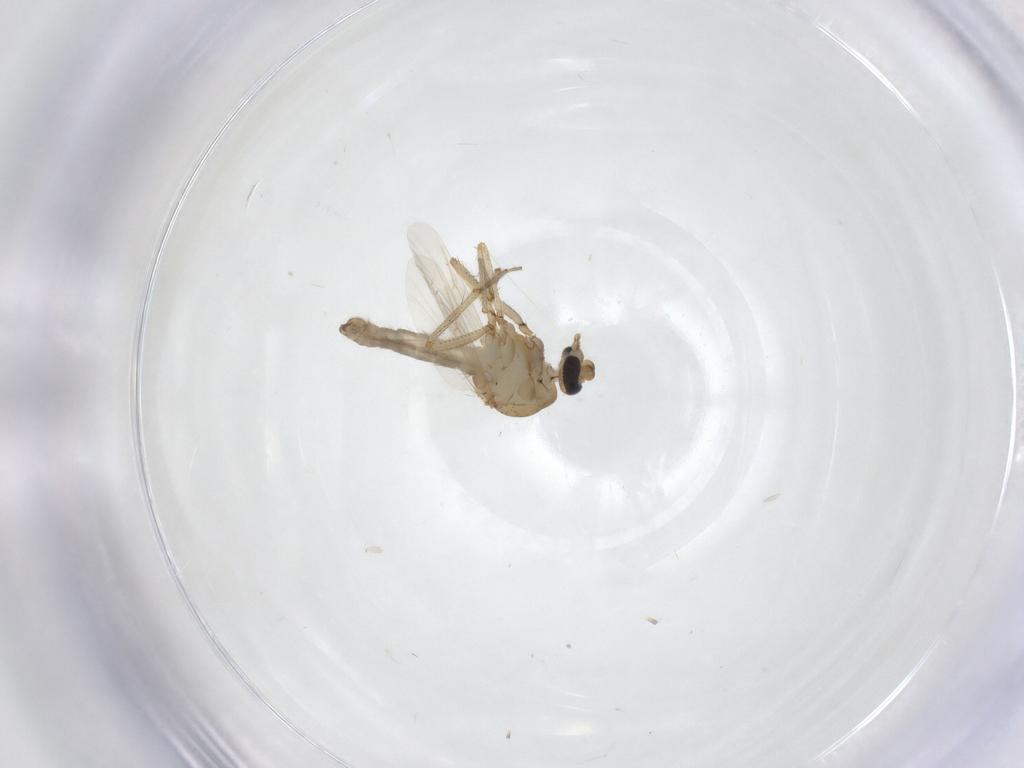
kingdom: Animalia
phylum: Arthropoda
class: Insecta
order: Diptera
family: Ceratopogonidae
